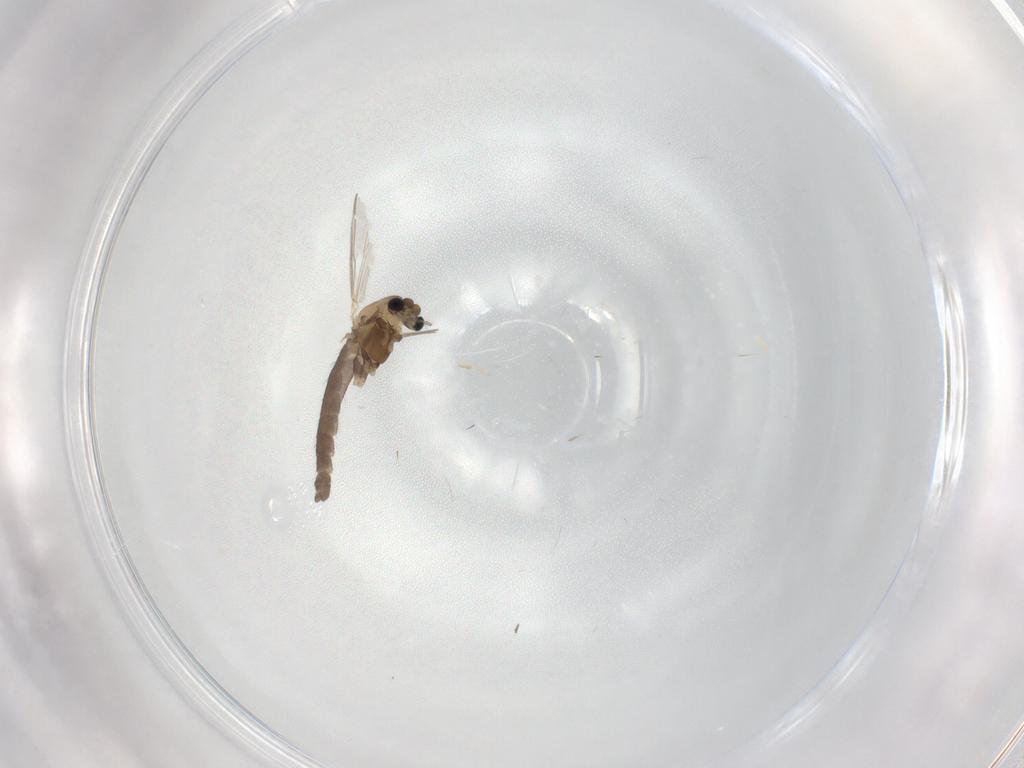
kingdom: Animalia
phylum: Arthropoda
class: Insecta
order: Diptera
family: Chironomidae
